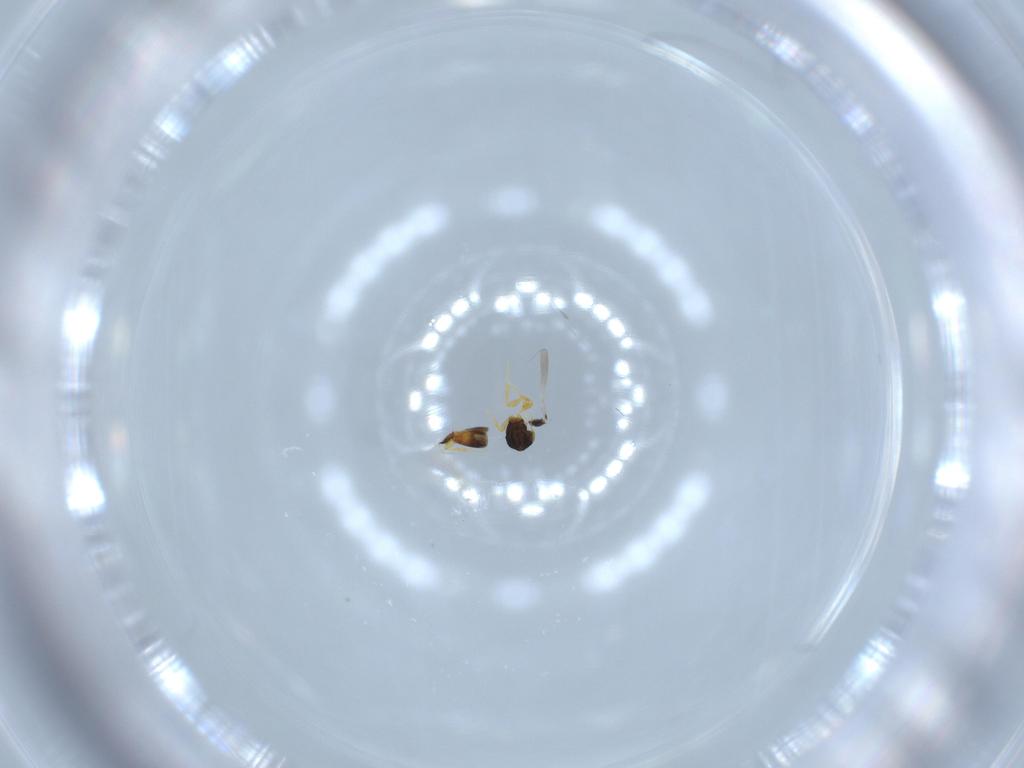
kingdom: Animalia
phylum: Arthropoda
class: Insecta
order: Hymenoptera
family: Platygastridae
